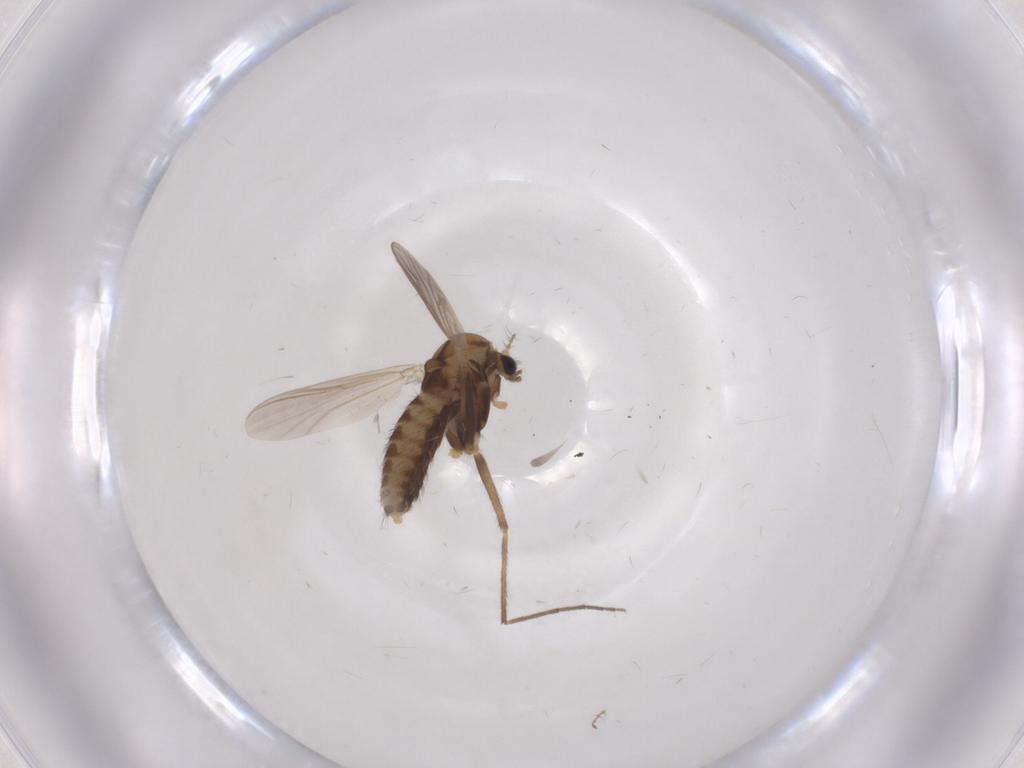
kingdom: Animalia
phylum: Arthropoda
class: Insecta
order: Diptera
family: Chironomidae
